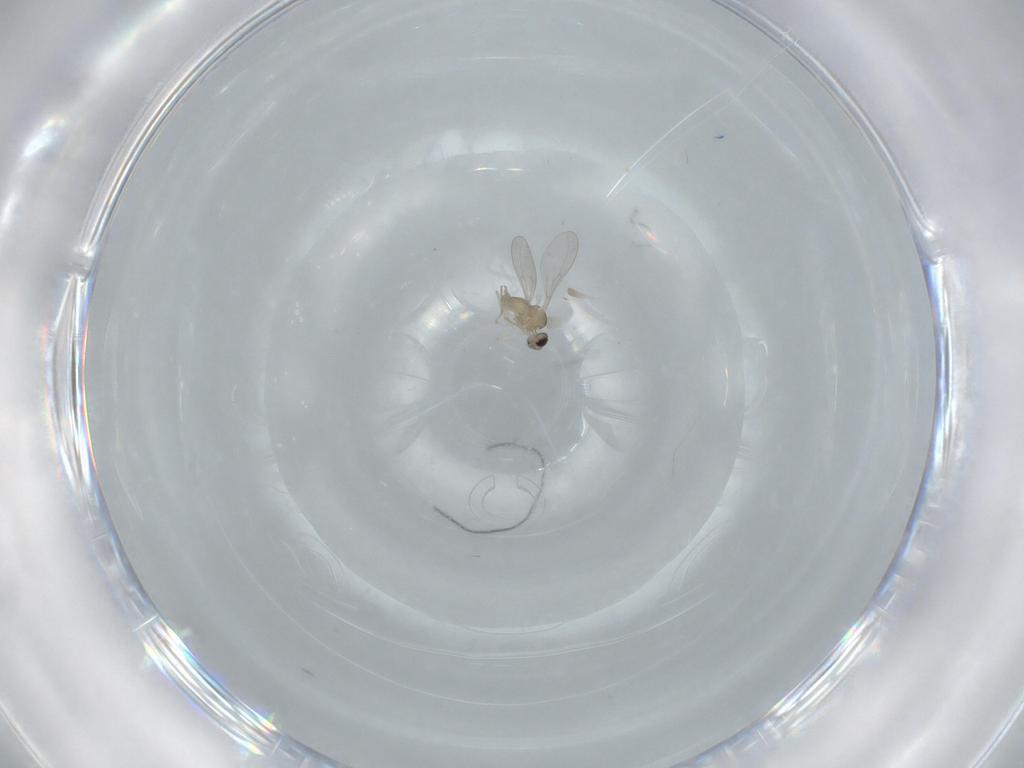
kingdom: Animalia
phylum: Arthropoda
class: Insecta
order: Diptera
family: Cecidomyiidae
